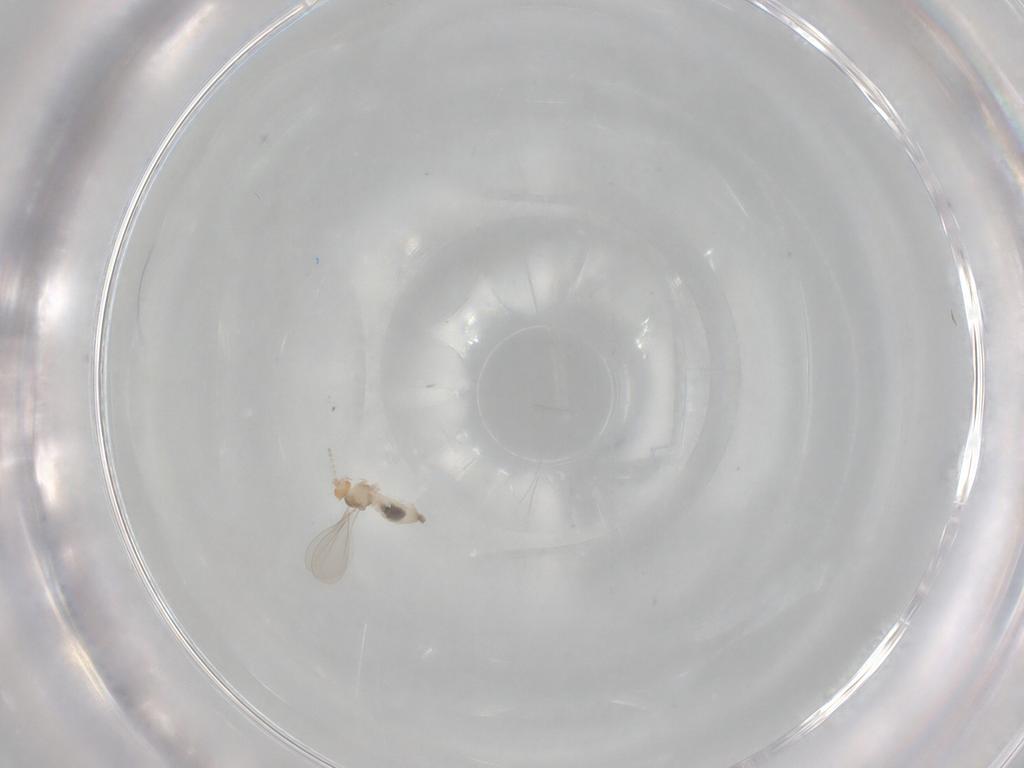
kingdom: Animalia
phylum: Arthropoda
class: Insecta
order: Diptera
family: Cecidomyiidae
